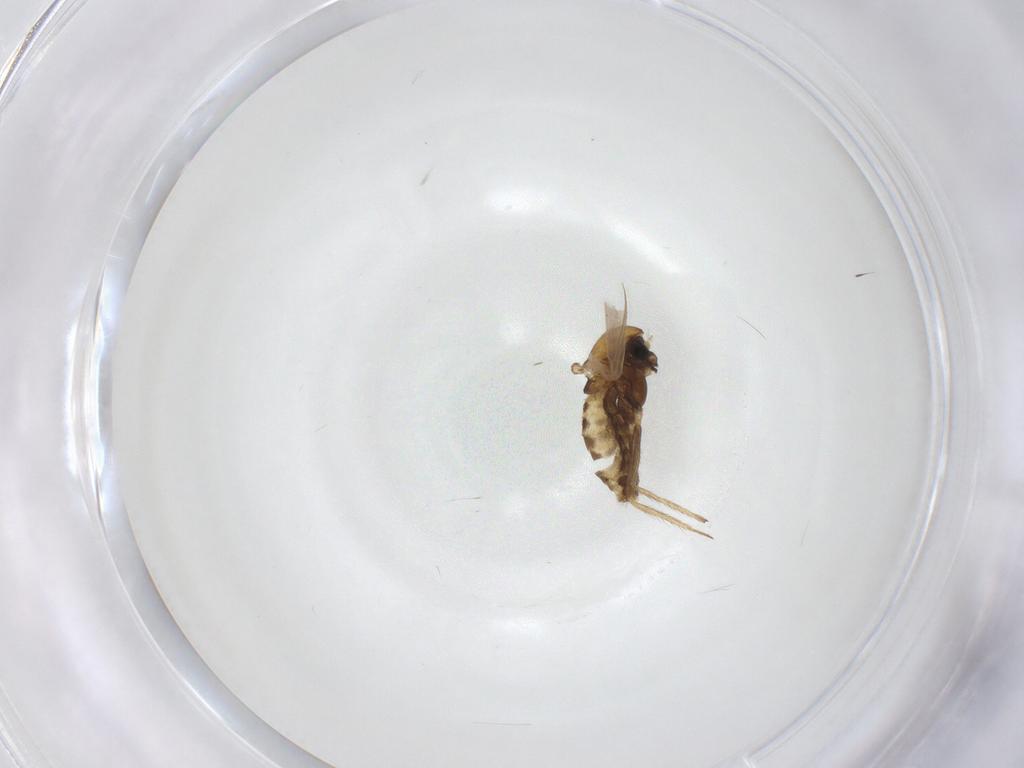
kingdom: Animalia
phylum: Arthropoda
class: Insecta
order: Diptera
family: Chironomidae
